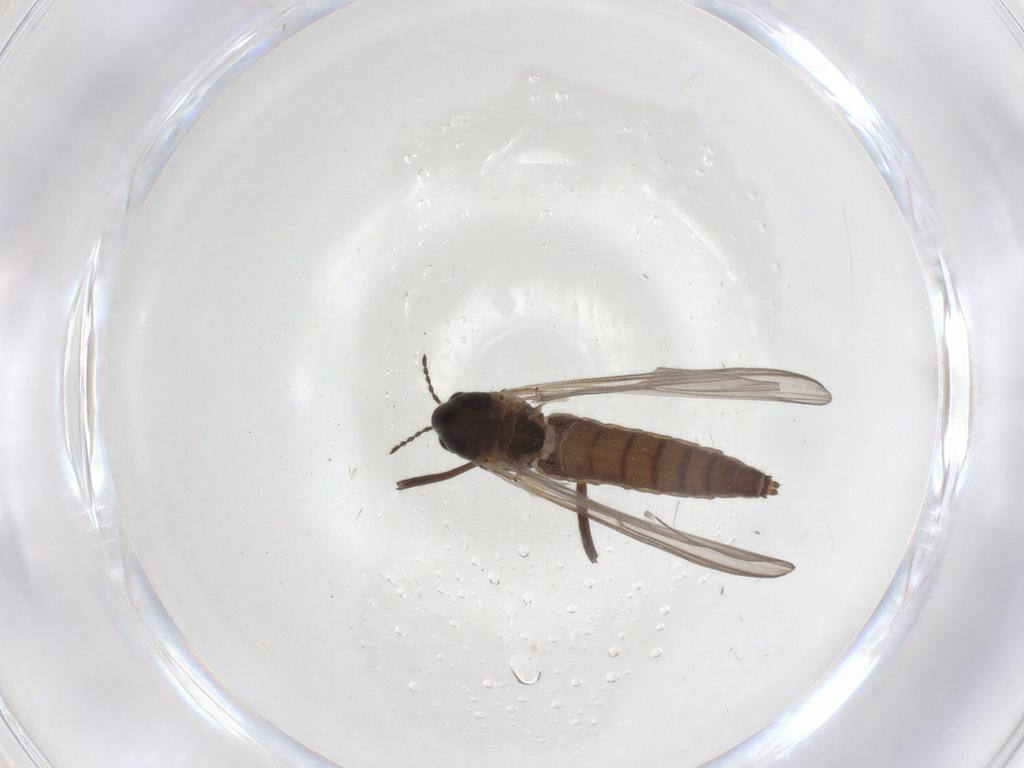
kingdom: Animalia
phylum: Arthropoda
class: Insecta
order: Diptera
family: Chironomidae
